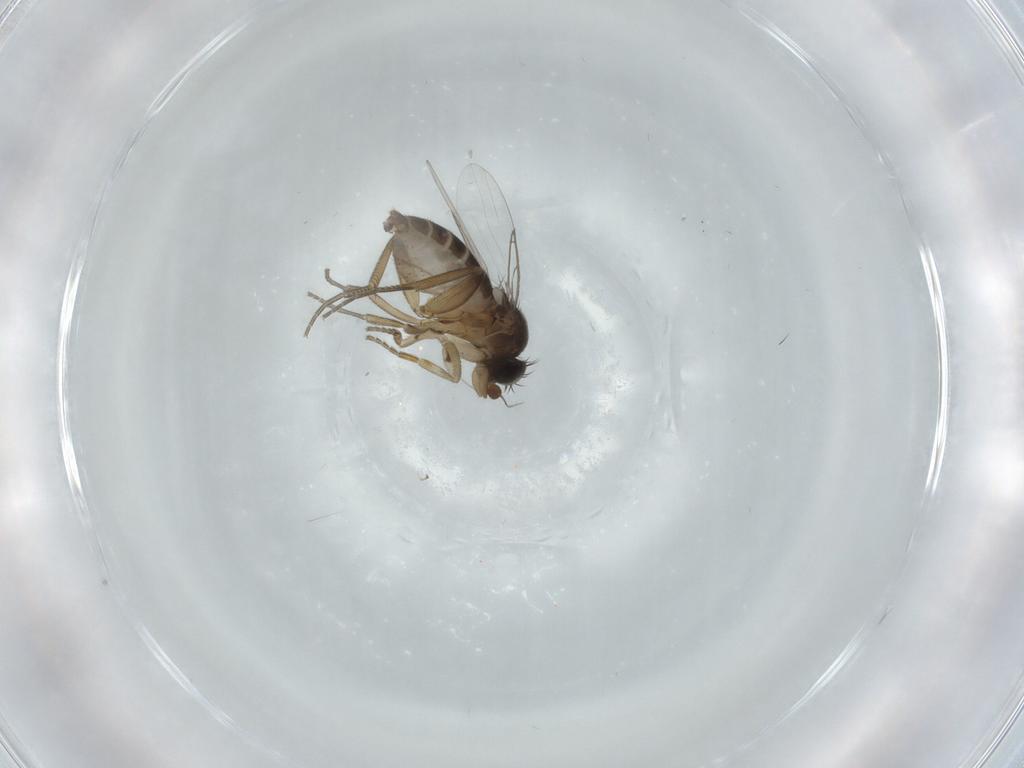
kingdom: Animalia
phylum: Arthropoda
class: Insecta
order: Diptera
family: Phoridae
